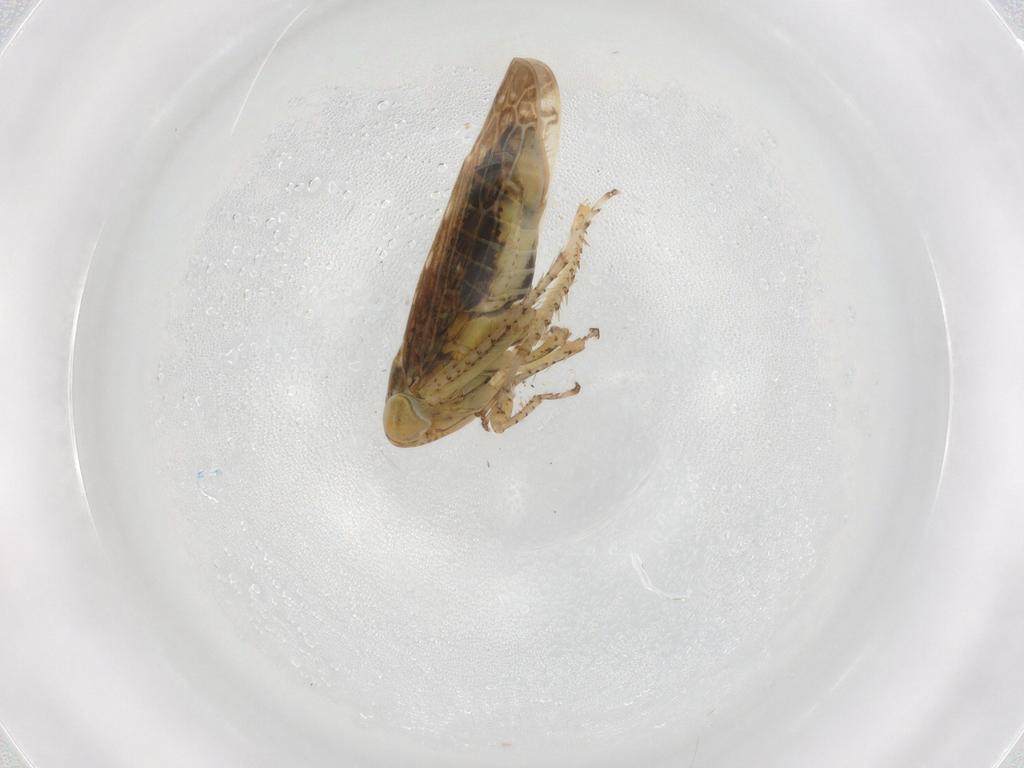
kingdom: Animalia
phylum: Arthropoda
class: Insecta
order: Hemiptera
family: Cicadellidae
